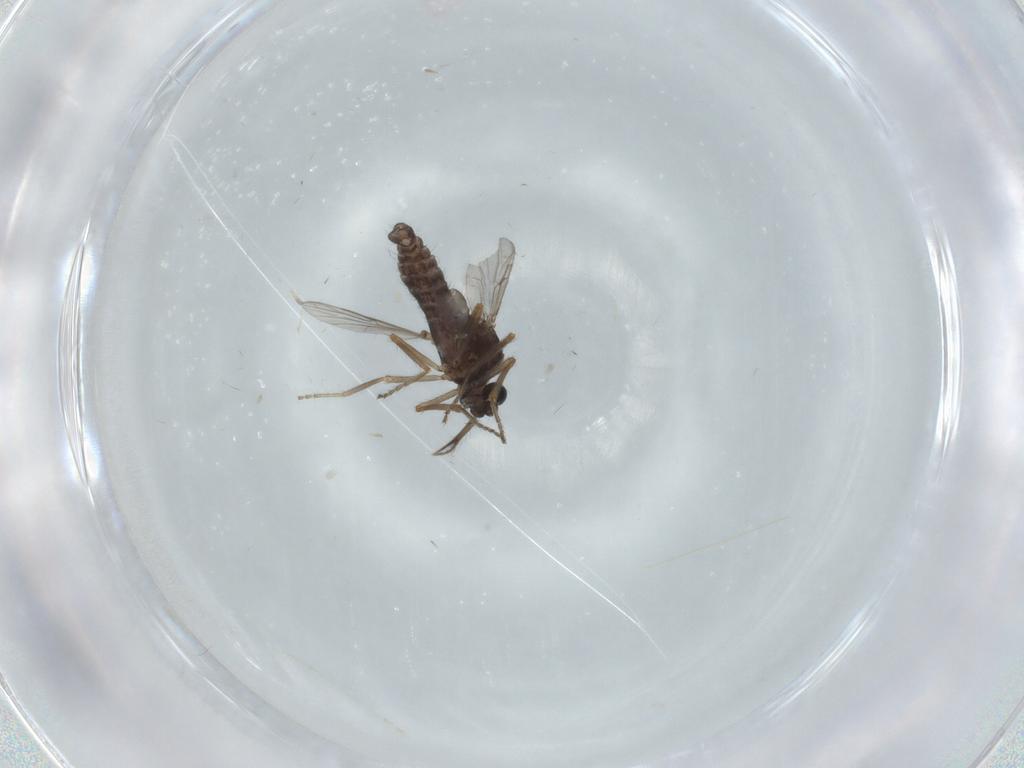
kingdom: Animalia
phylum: Arthropoda
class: Insecta
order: Diptera
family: Ceratopogonidae
